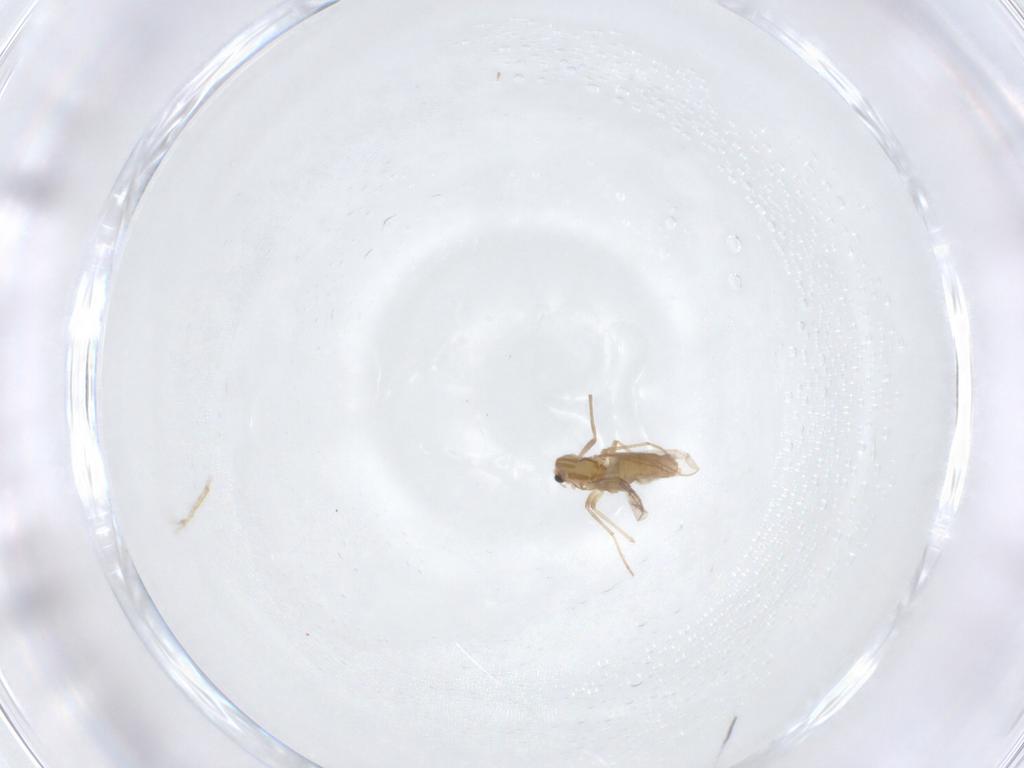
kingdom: Animalia
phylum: Arthropoda
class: Insecta
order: Diptera
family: Chironomidae
